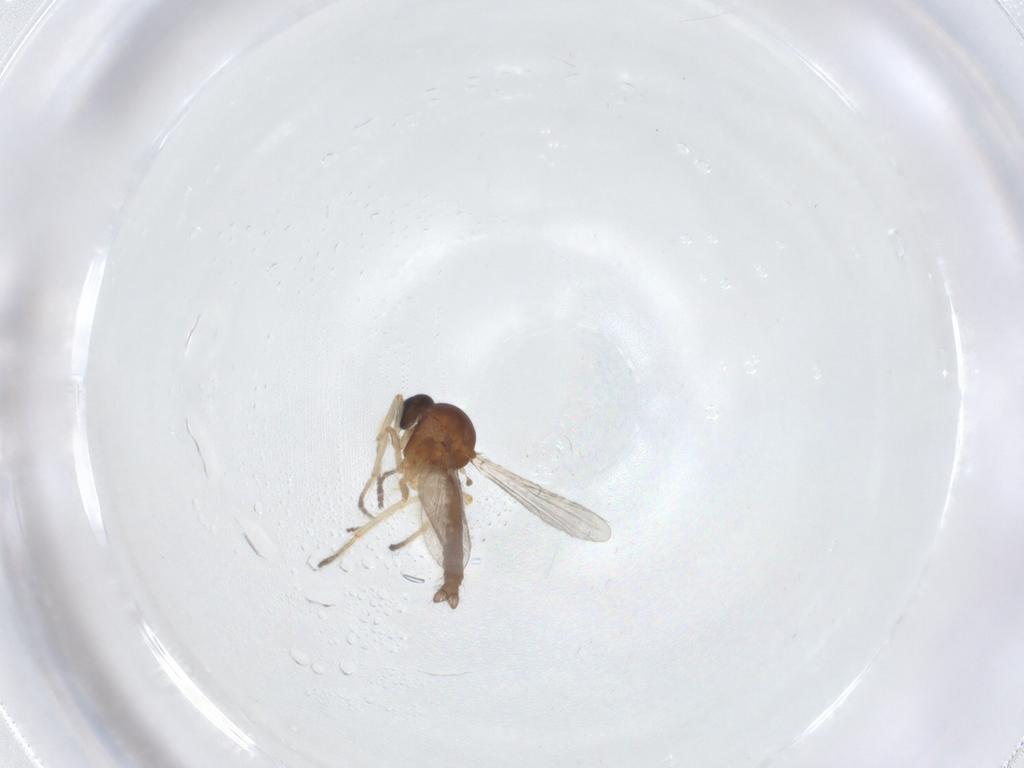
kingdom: Animalia
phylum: Arthropoda
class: Insecta
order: Diptera
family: Ceratopogonidae
